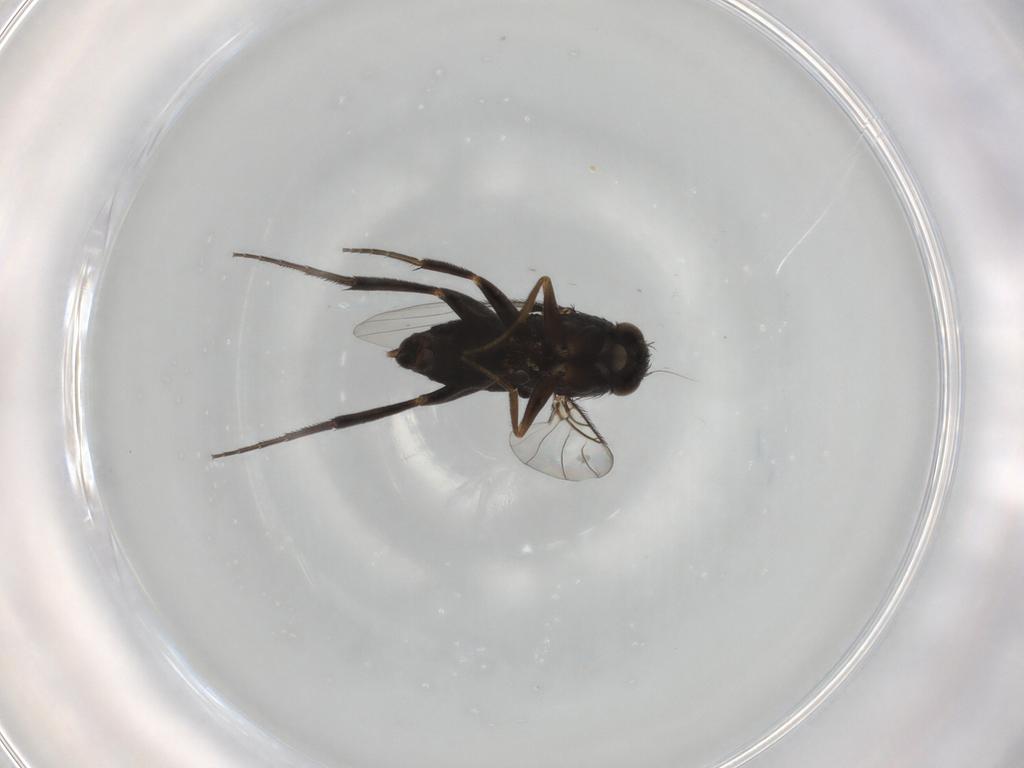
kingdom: Animalia
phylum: Arthropoda
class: Insecta
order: Diptera
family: Phoridae
